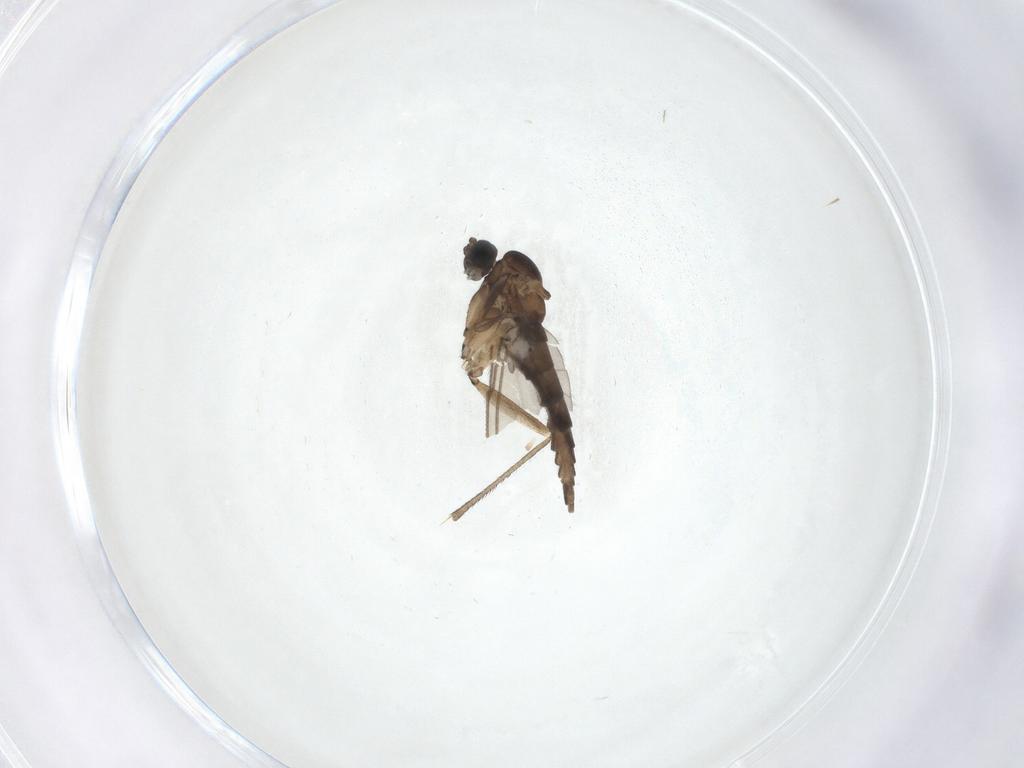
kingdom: Animalia
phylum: Arthropoda
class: Insecta
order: Diptera
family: Sciaridae
